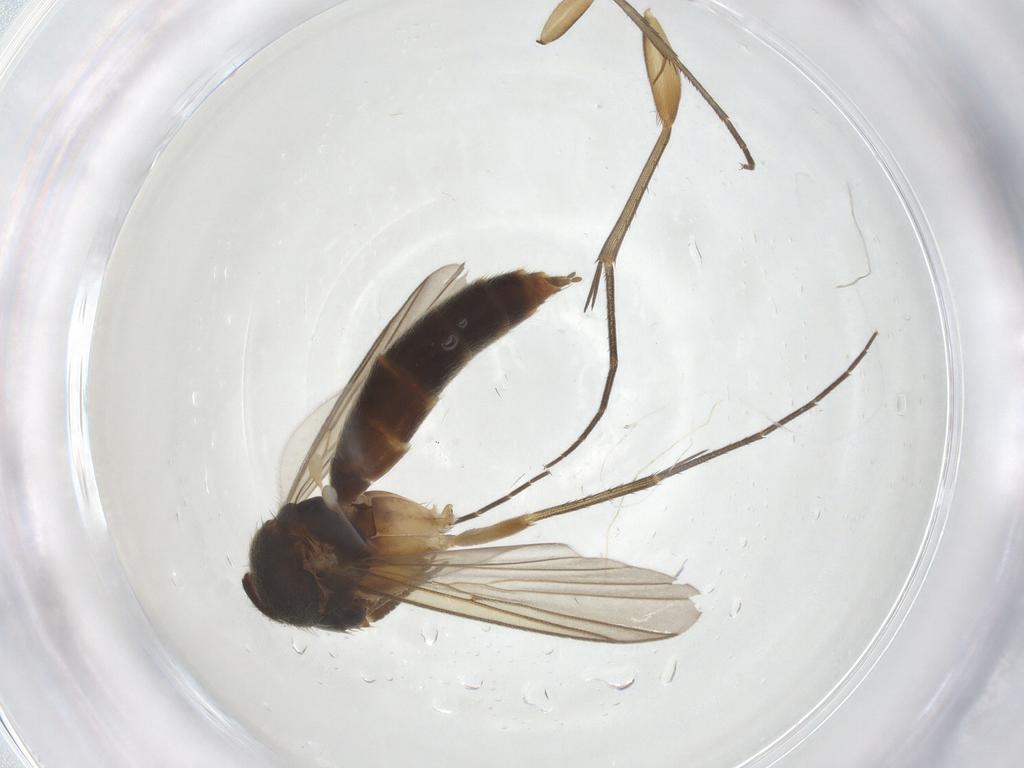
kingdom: Animalia
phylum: Arthropoda
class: Insecta
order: Diptera
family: Mycetophilidae
